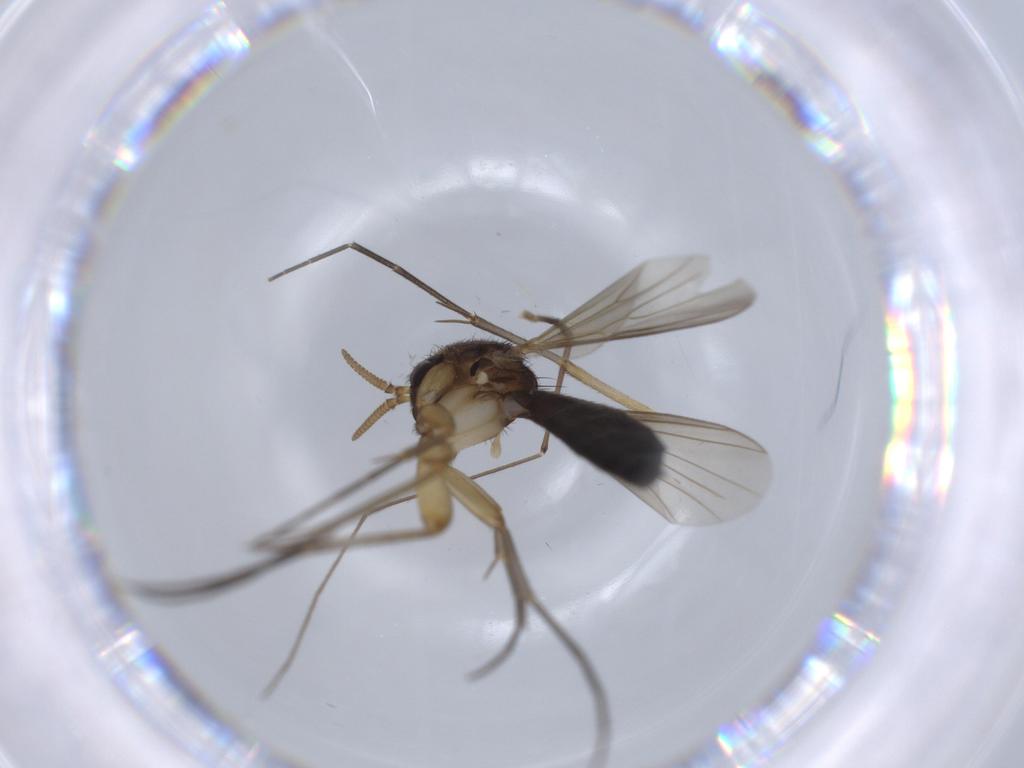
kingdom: Animalia
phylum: Arthropoda
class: Insecta
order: Diptera
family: Mycetophilidae
